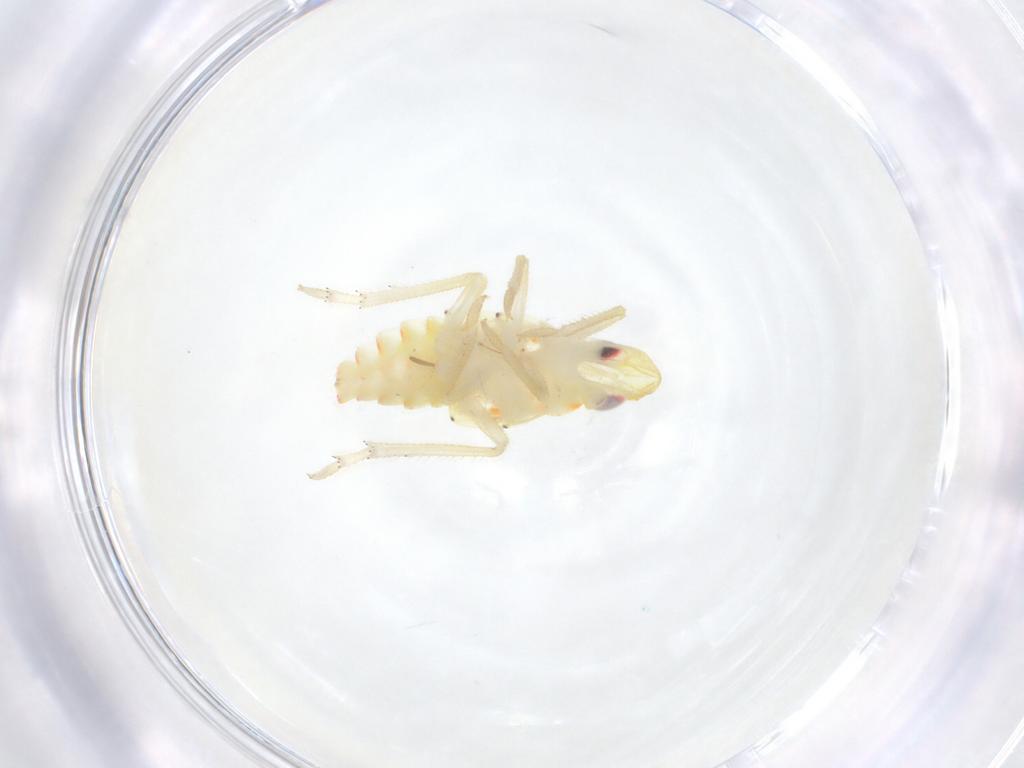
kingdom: Animalia
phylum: Arthropoda
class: Insecta
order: Hemiptera
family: Tropiduchidae
